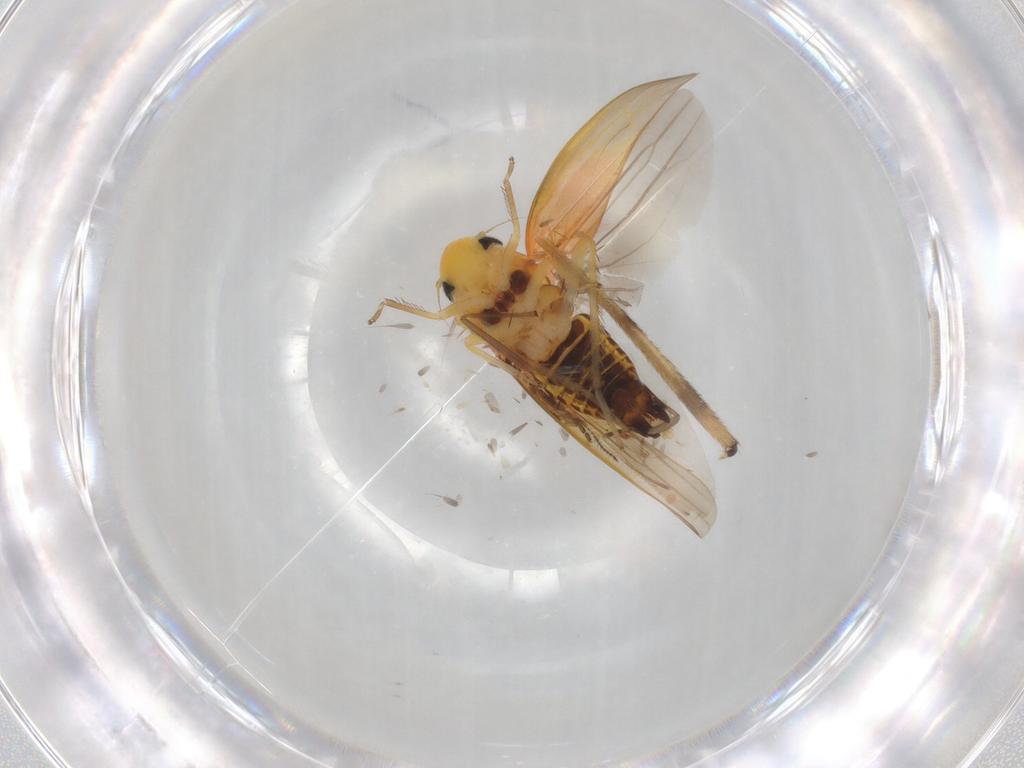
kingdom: Animalia
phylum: Arthropoda
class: Insecta
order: Hemiptera
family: Cicadellidae
